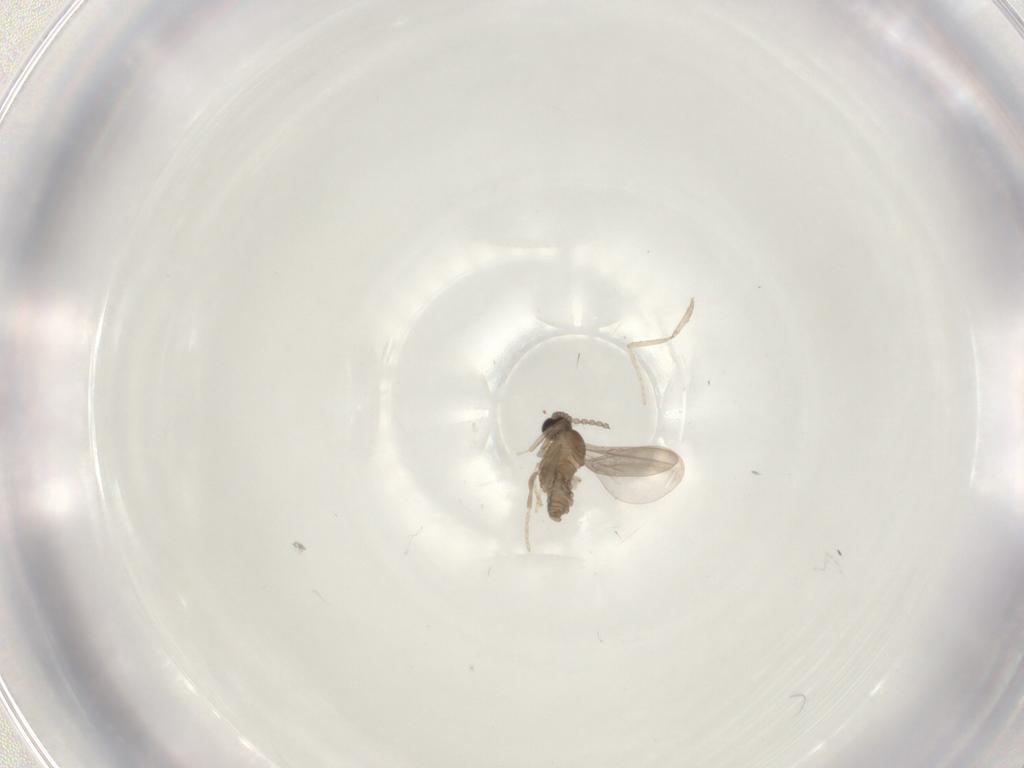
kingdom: Animalia
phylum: Arthropoda
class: Insecta
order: Diptera
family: Cecidomyiidae
